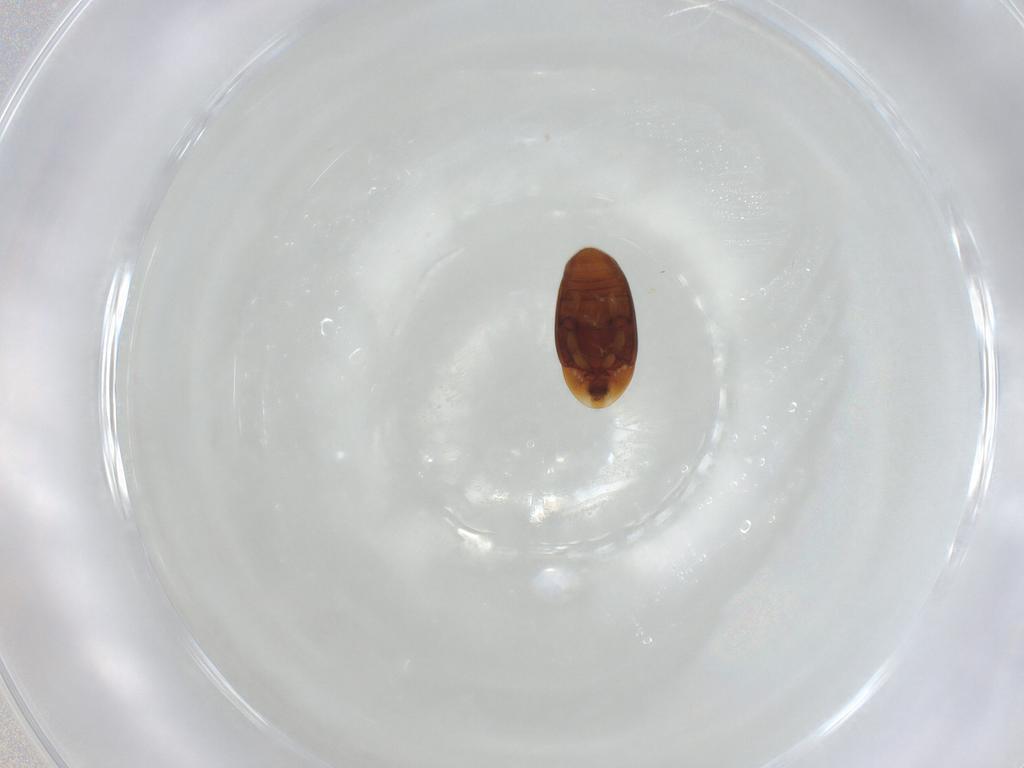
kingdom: Animalia
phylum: Arthropoda
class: Insecta
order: Coleoptera
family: Corylophidae
